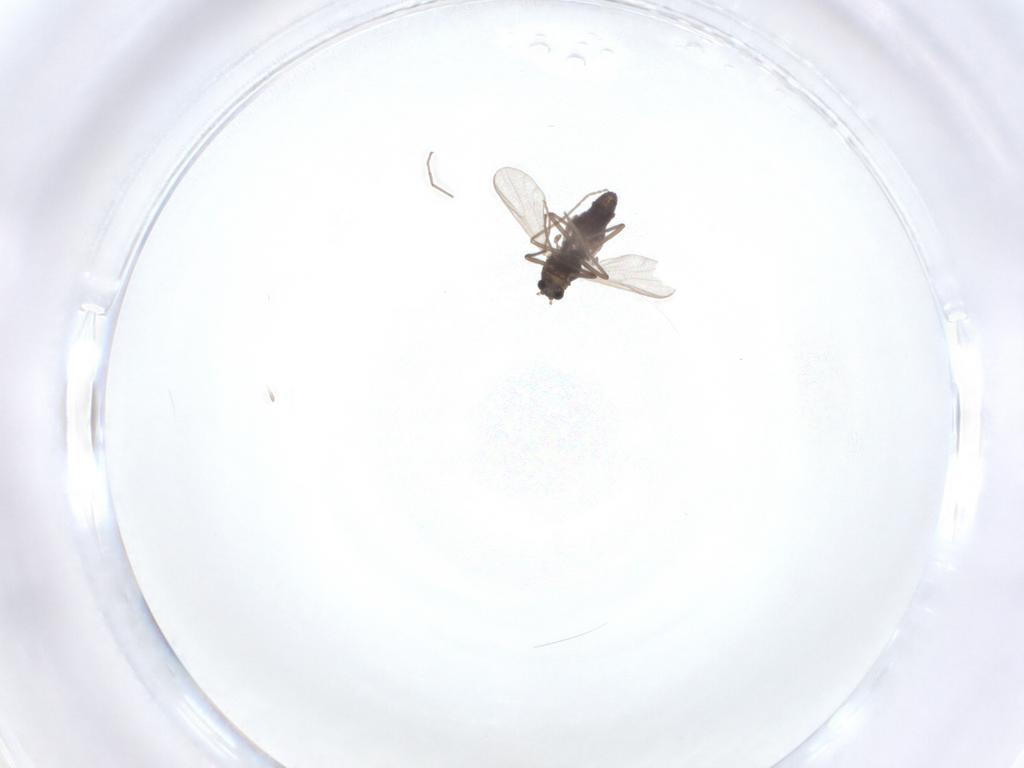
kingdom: Animalia
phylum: Arthropoda
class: Insecta
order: Diptera
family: Chironomidae
